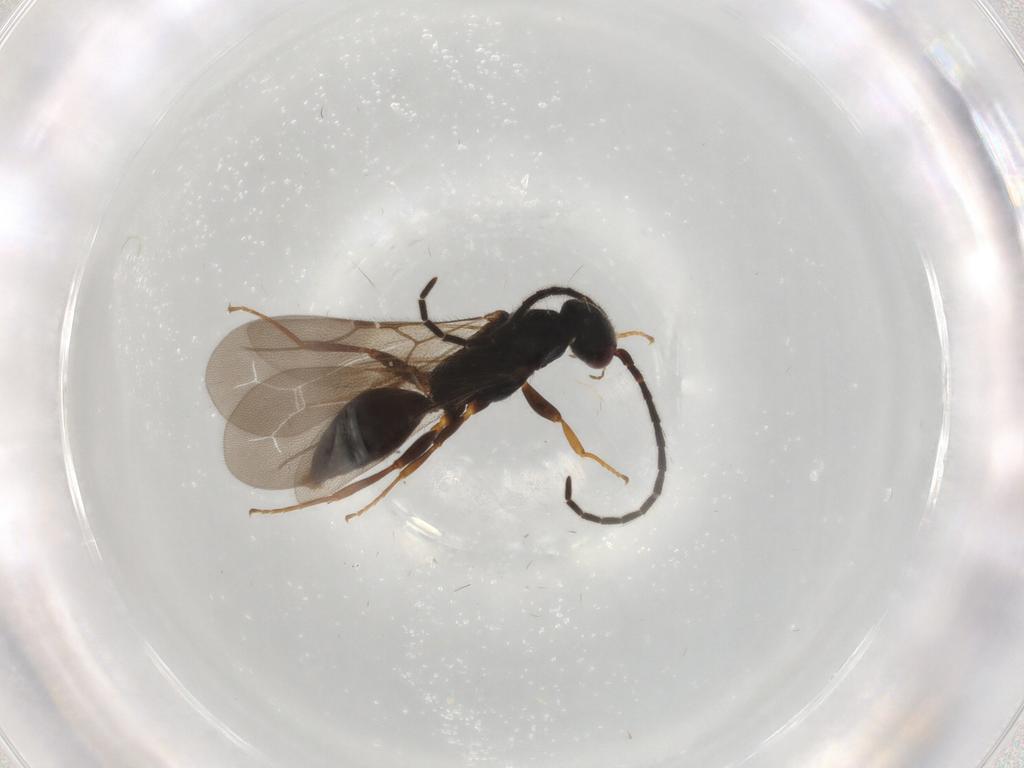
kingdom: Animalia
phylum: Arthropoda
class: Insecta
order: Hymenoptera
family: Bethylidae
